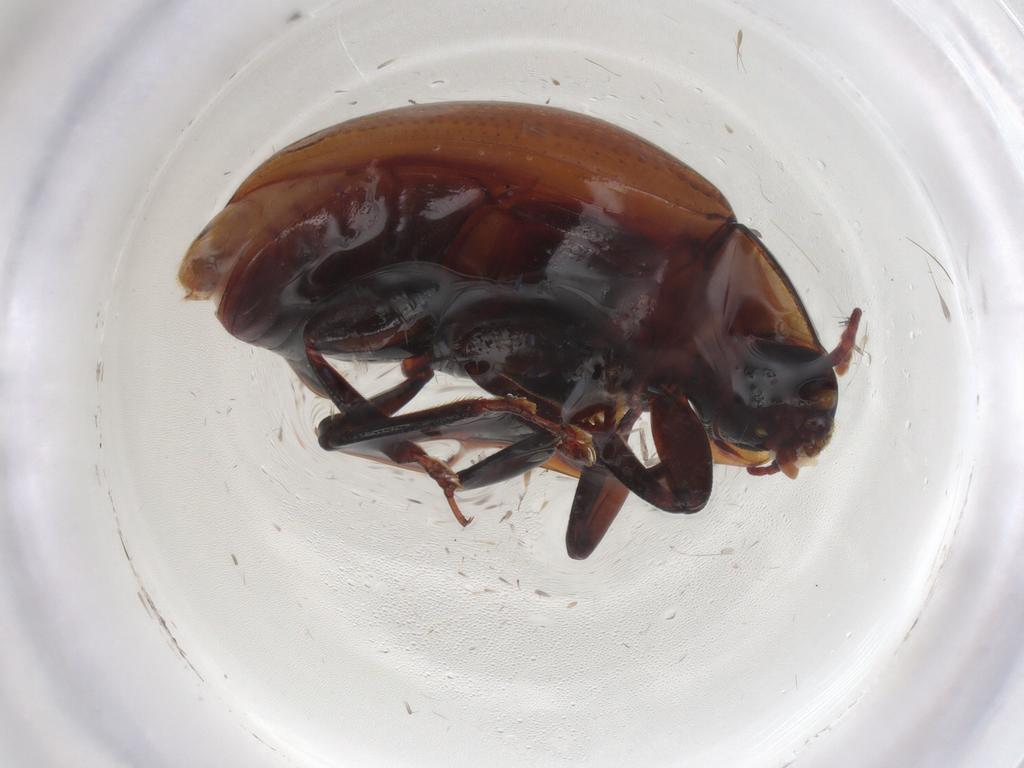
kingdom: Animalia
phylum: Arthropoda
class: Insecta
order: Coleoptera
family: Zopheridae
